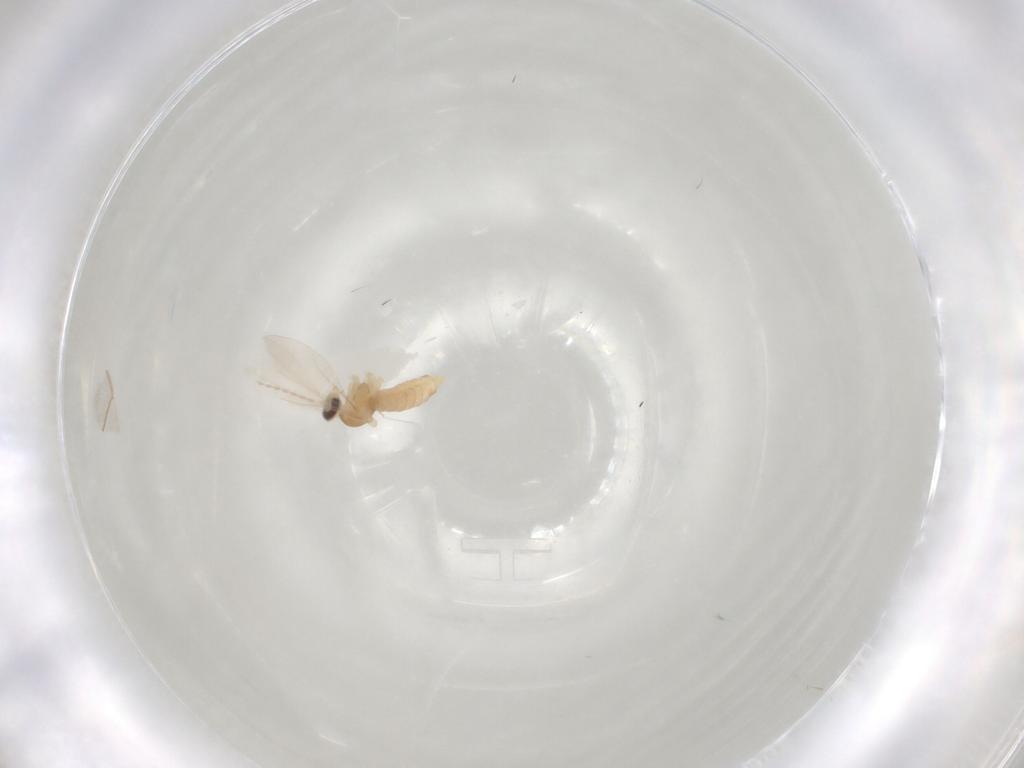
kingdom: Animalia
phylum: Arthropoda
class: Insecta
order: Diptera
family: Cecidomyiidae
